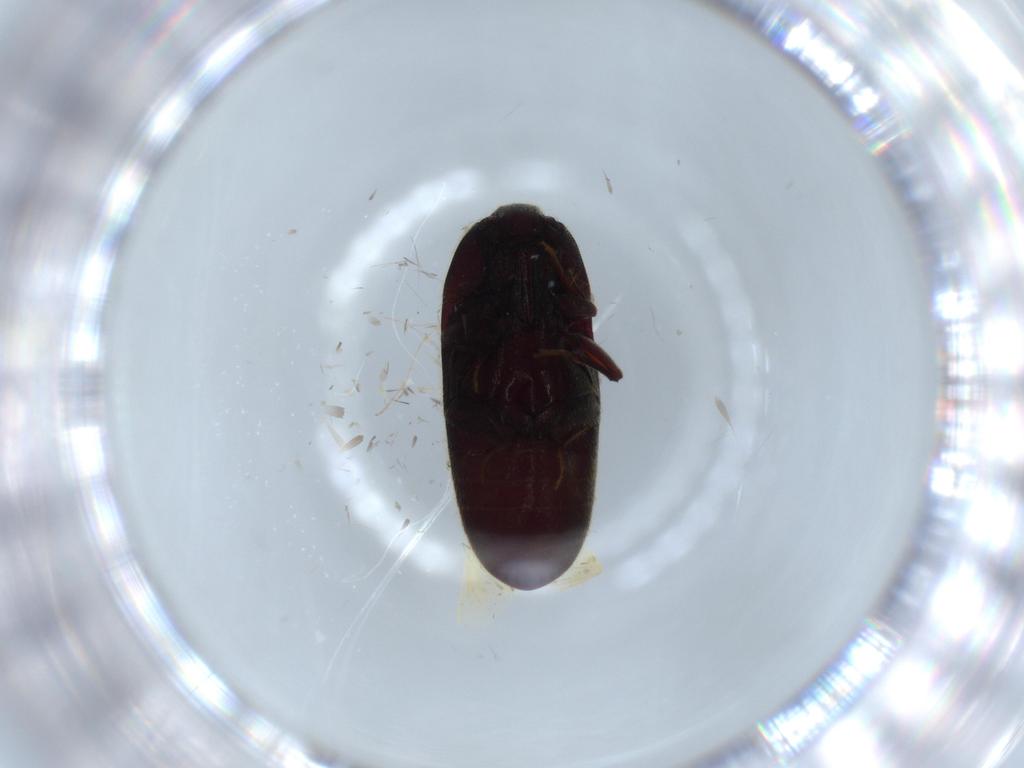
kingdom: Animalia
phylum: Arthropoda
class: Insecta
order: Coleoptera
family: Throscidae
